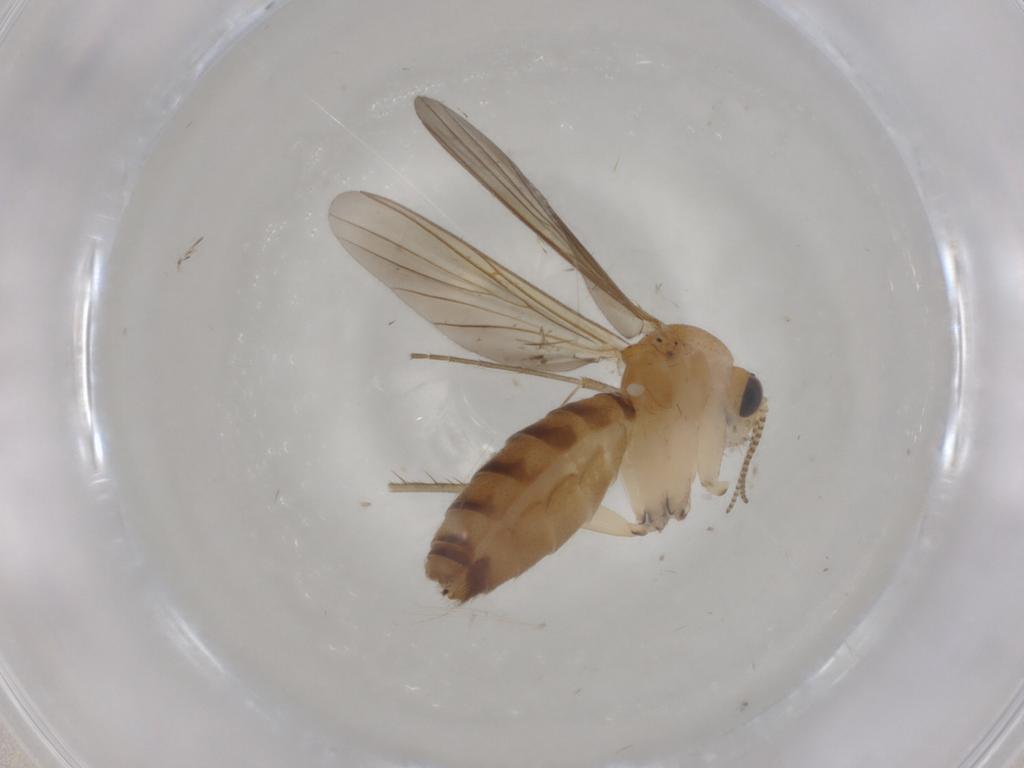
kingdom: Animalia
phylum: Arthropoda
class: Insecta
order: Diptera
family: Mycetophilidae
